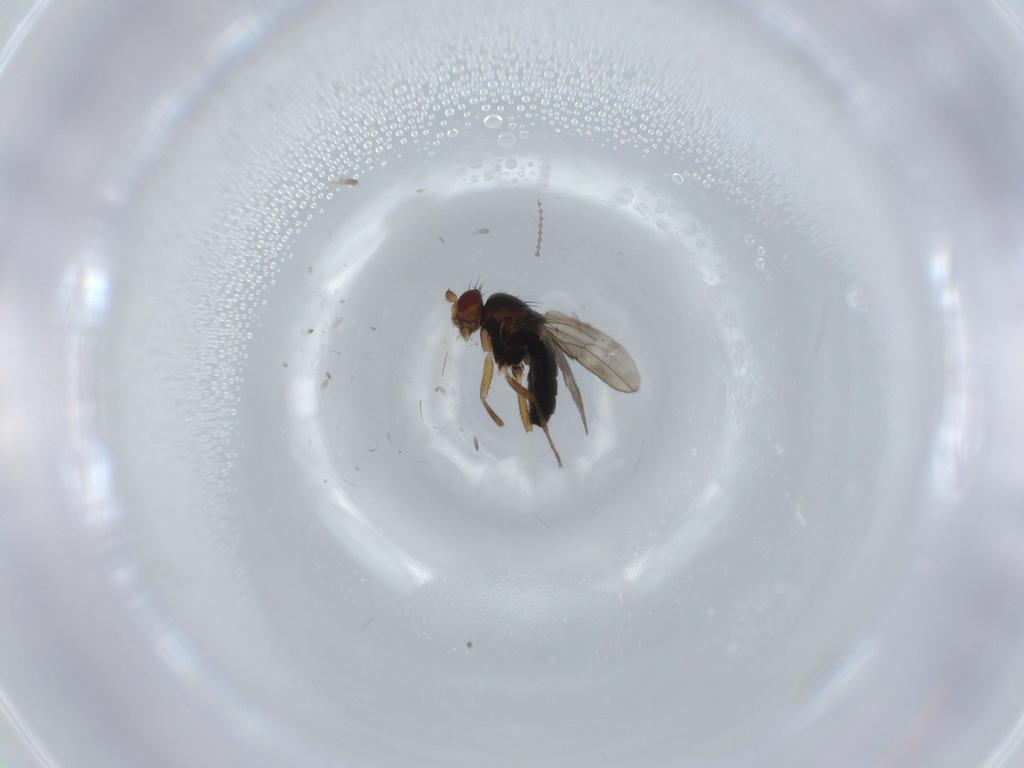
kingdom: Animalia
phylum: Arthropoda
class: Insecta
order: Diptera
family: Sphaeroceridae
